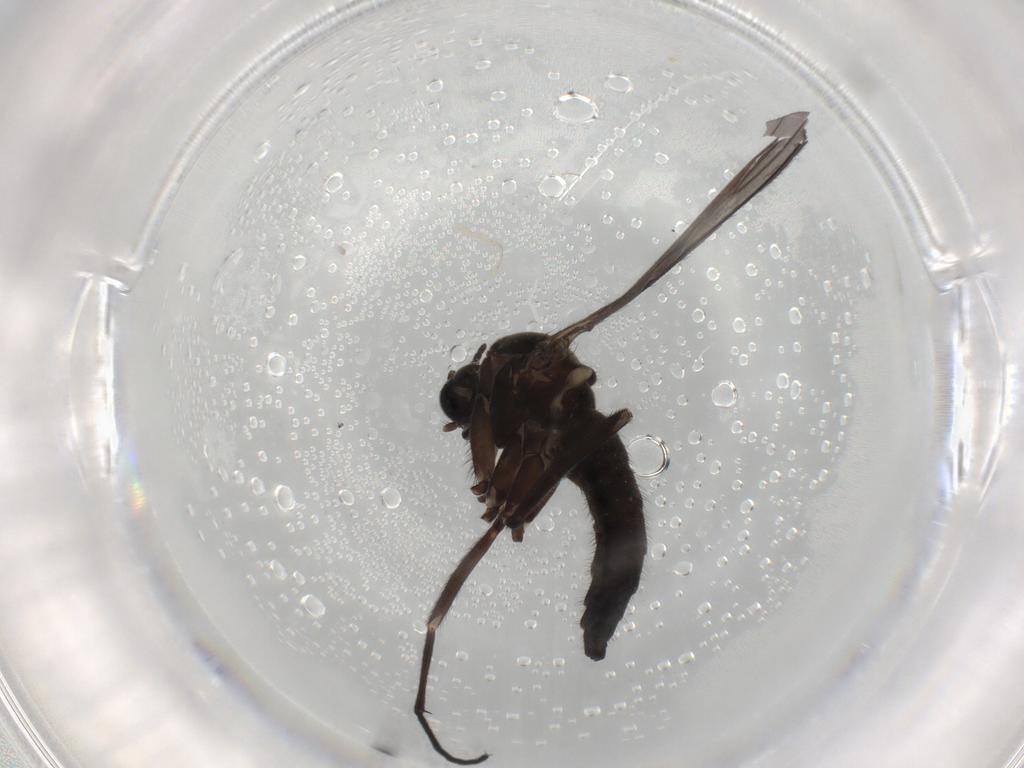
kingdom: Animalia
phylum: Arthropoda
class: Insecta
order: Diptera
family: Sciaridae
